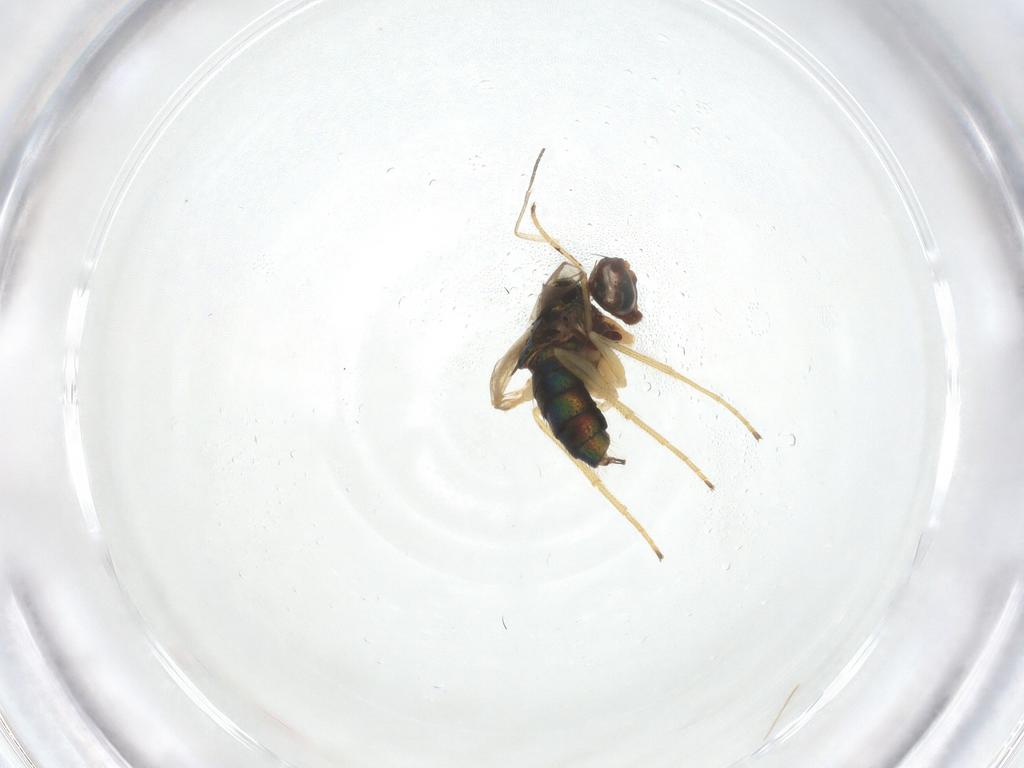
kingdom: Animalia
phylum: Arthropoda
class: Insecta
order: Diptera
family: Dolichopodidae
